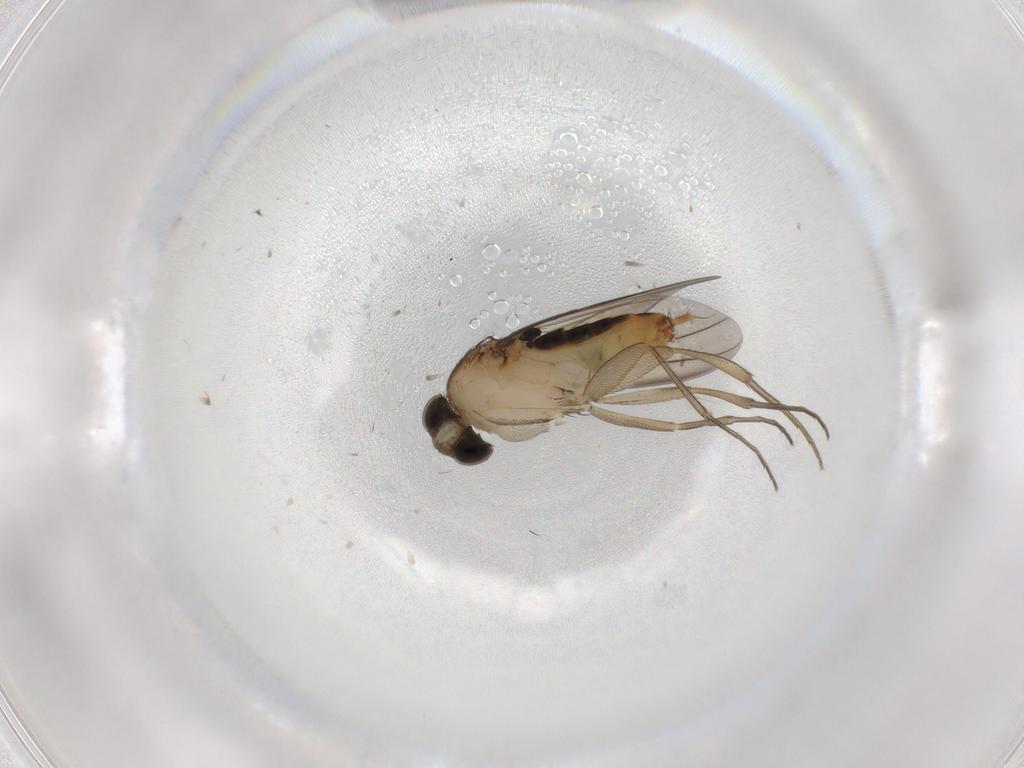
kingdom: Animalia
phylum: Arthropoda
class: Insecta
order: Diptera
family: Phoridae
